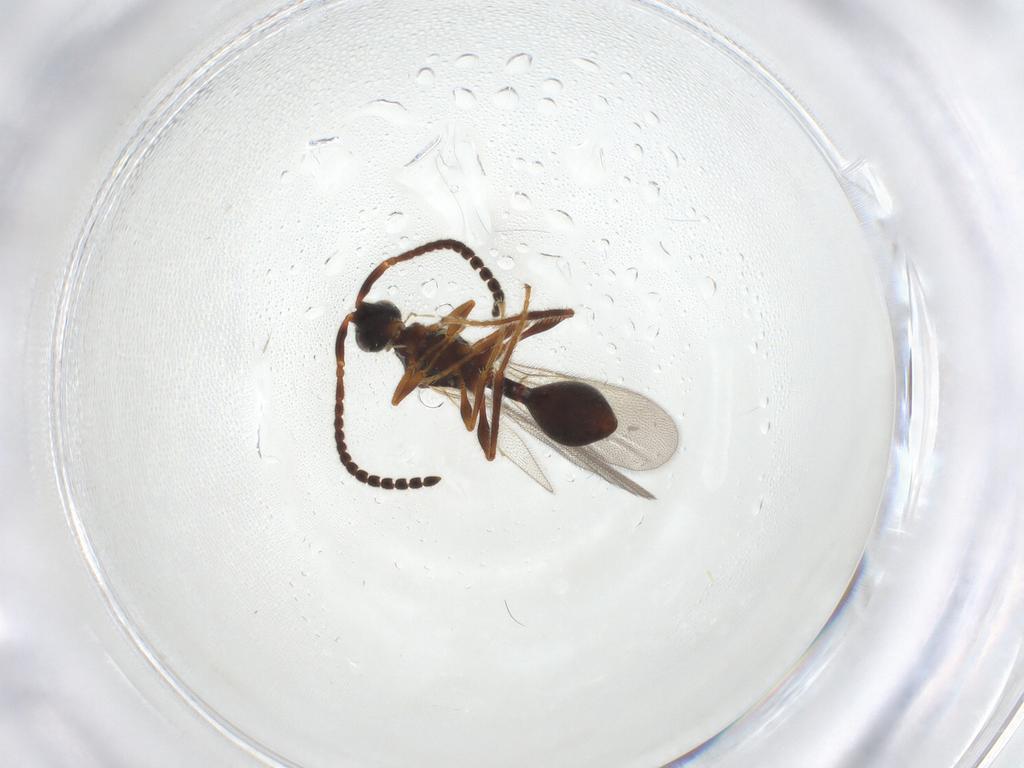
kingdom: Animalia
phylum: Arthropoda
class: Insecta
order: Hymenoptera
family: Diapriidae
